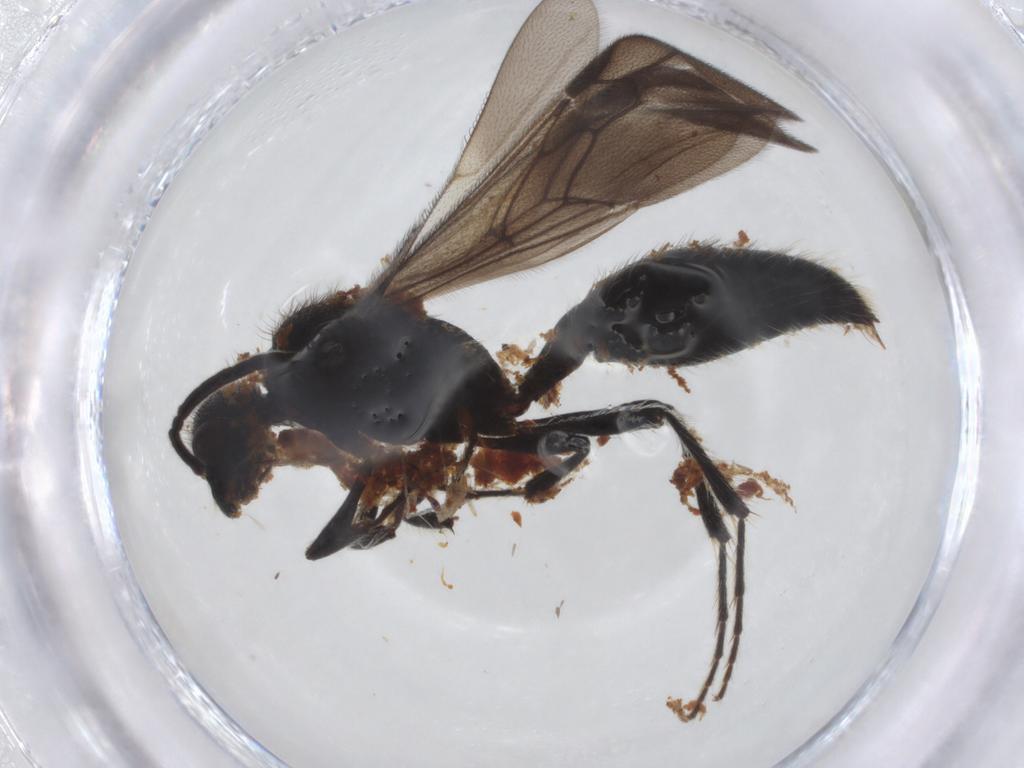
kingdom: Animalia
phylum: Arthropoda
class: Insecta
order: Hymenoptera
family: Mutillidae
